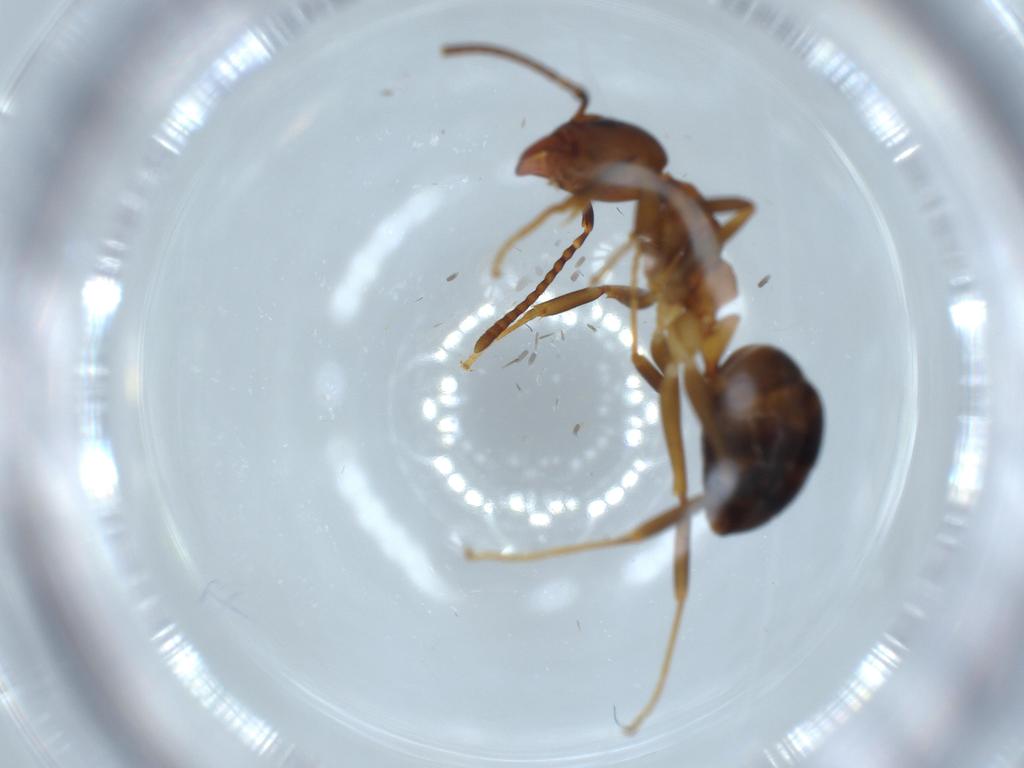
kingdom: Animalia
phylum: Arthropoda
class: Insecta
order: Hymenoptera
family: Formicidae
